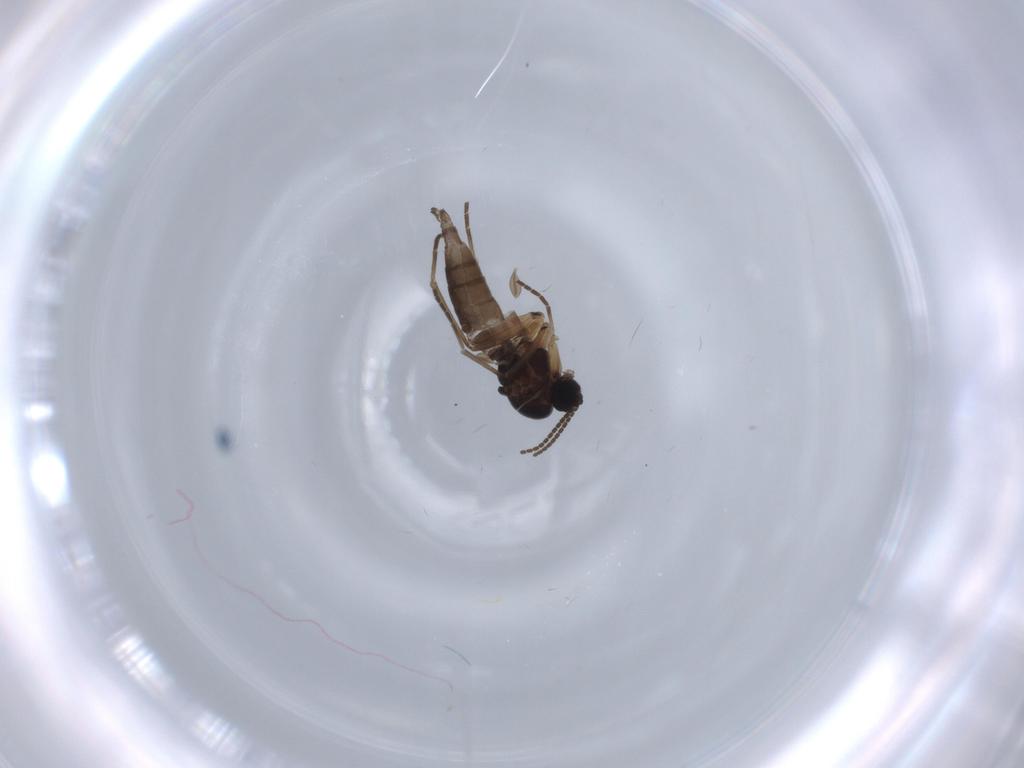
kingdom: Animalia
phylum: Arthropoda
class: Insecta
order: Diptera
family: Sciaridae
